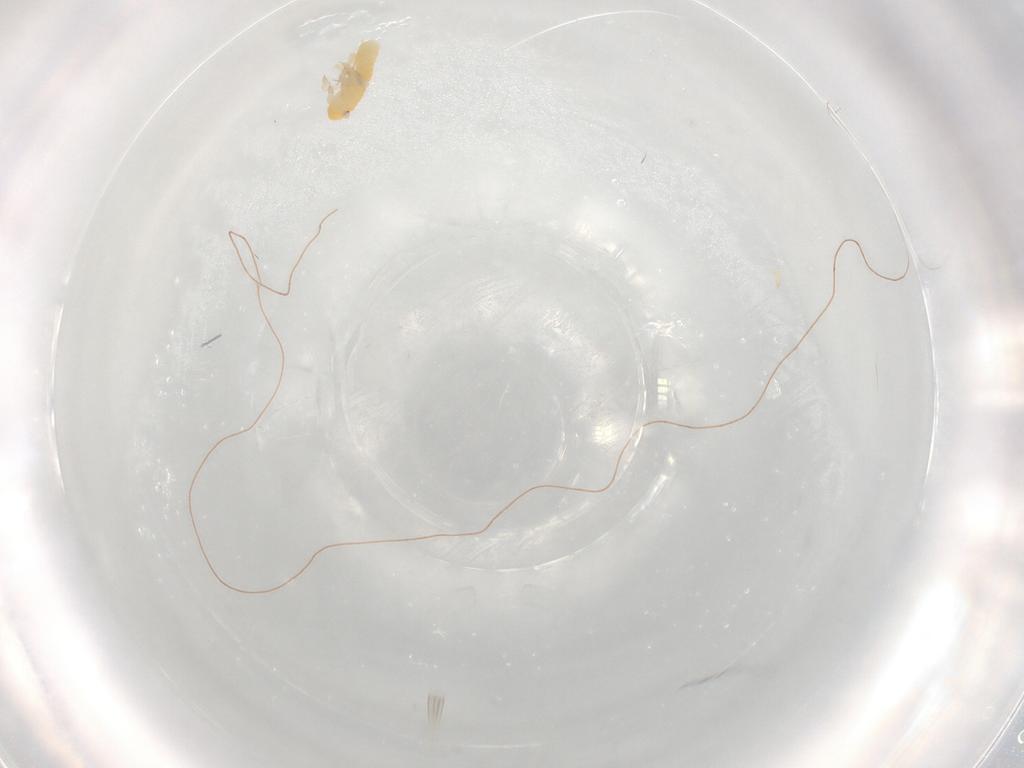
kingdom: Animalia
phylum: Arthropoda
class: Insecta
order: Hemiptera
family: Delphacidae
